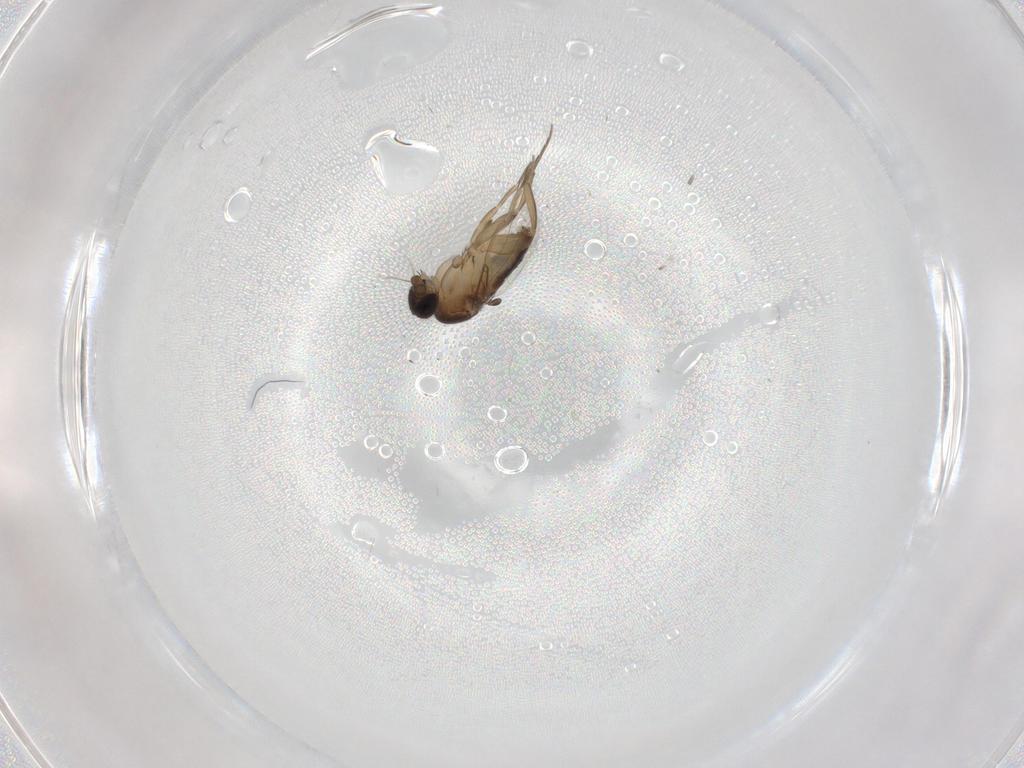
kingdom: Animalia
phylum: Arthropoda
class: Insecta
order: Diptera
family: Phoridae
